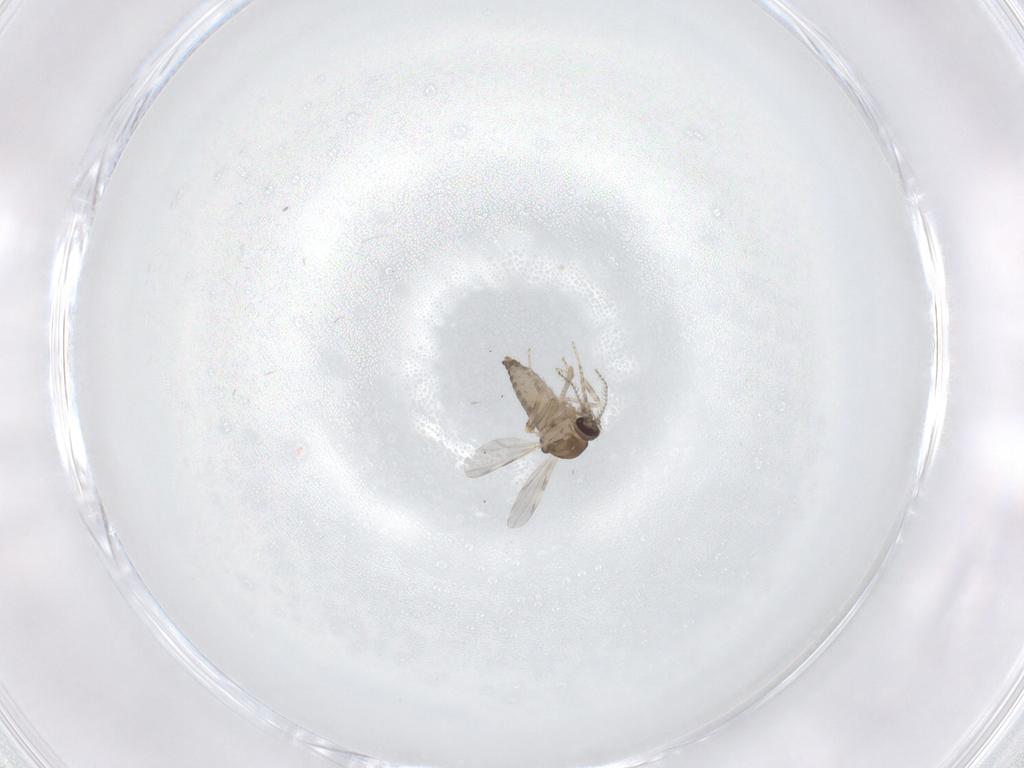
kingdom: Animalia
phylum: Arthropoda
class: Insecta
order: Diptera
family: Ceratopogonidae
